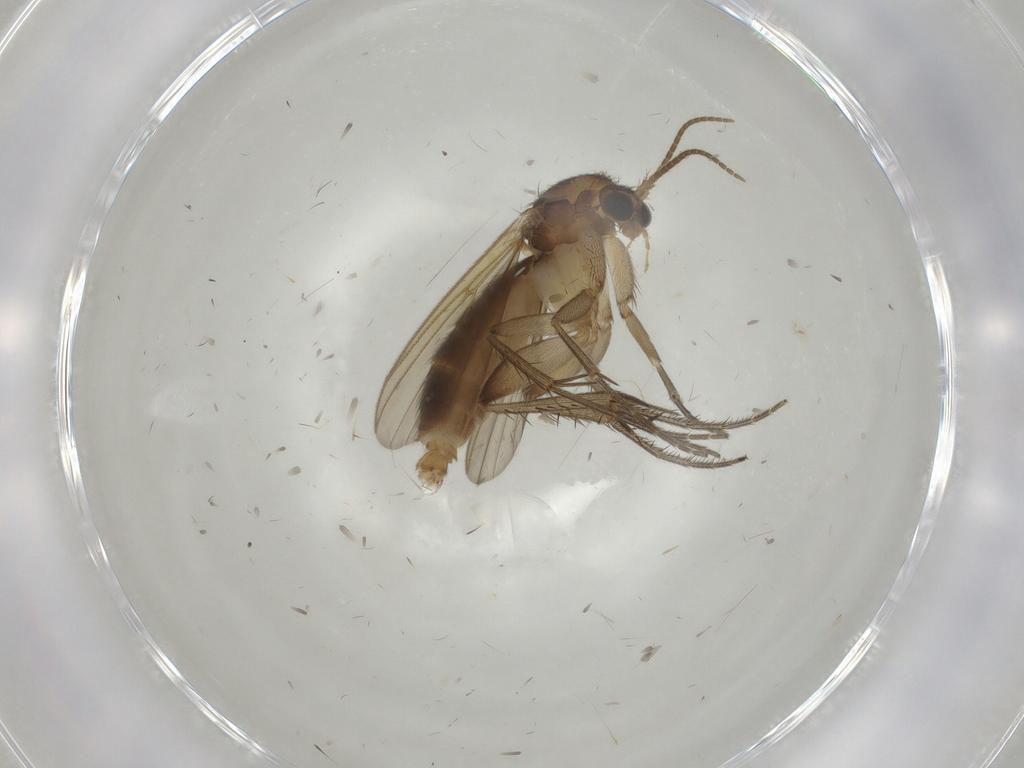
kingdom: Animalia
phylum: Arthropoda
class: Insecta
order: Diptera
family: Mycetophilidae
